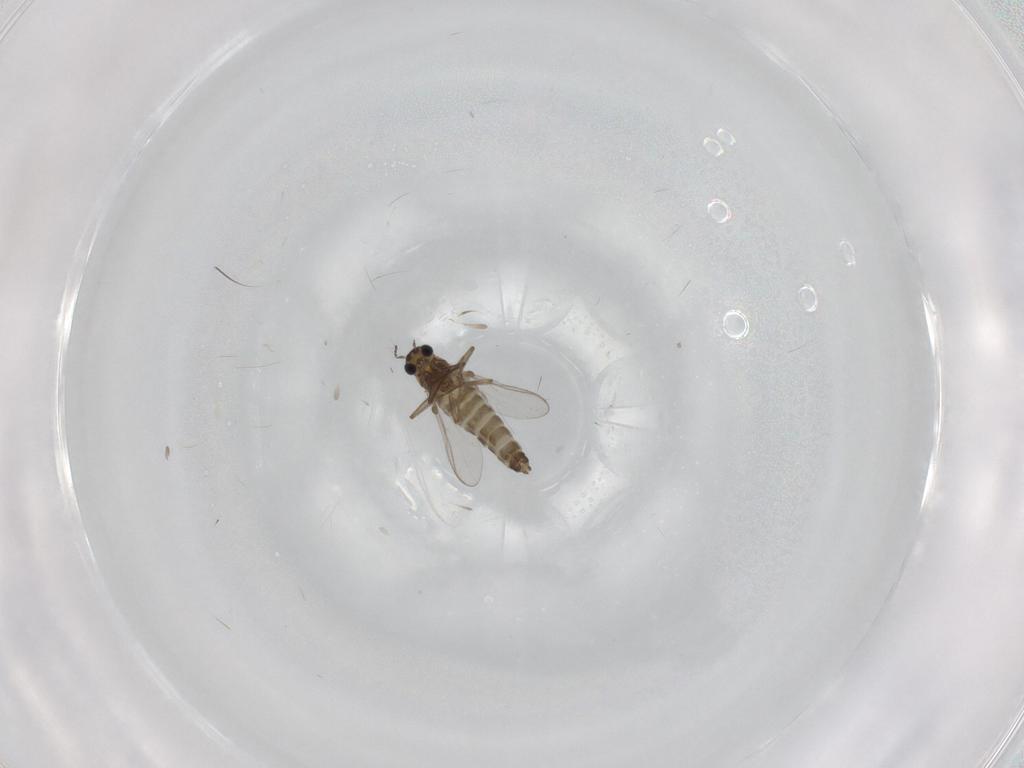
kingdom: Animalia
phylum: Arthropoda
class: Insecta
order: Diptera
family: Chironomidae
